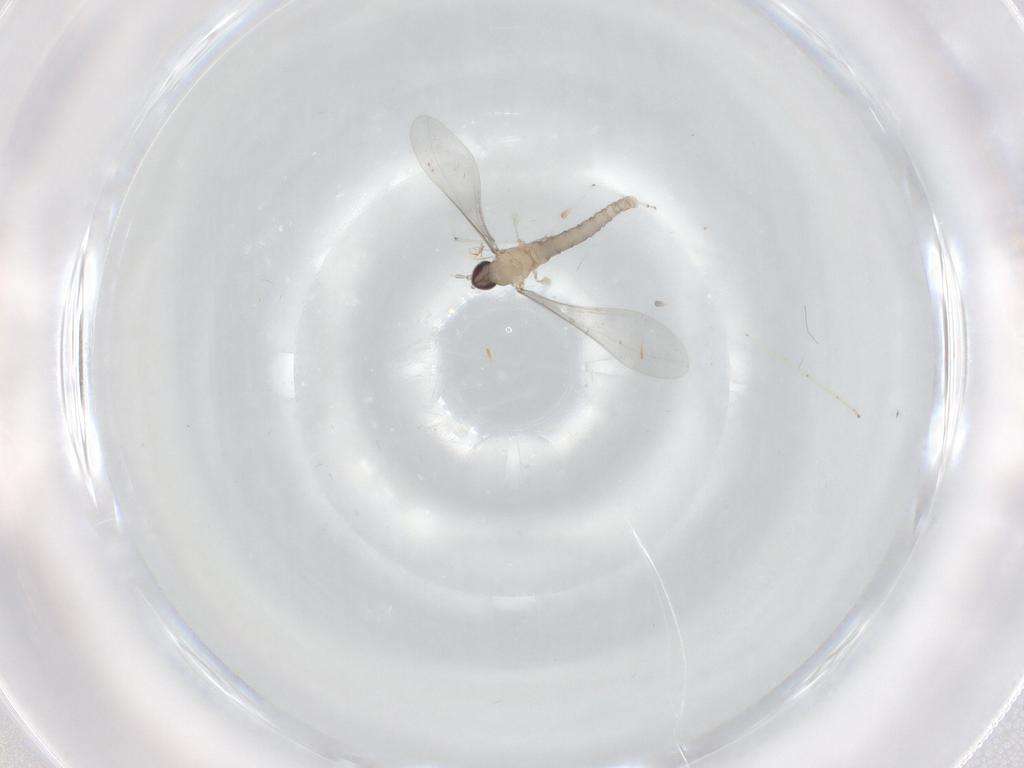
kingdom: Animalia
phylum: Arthropoda
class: Insecta
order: Diptera
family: Cecidomyiidae
